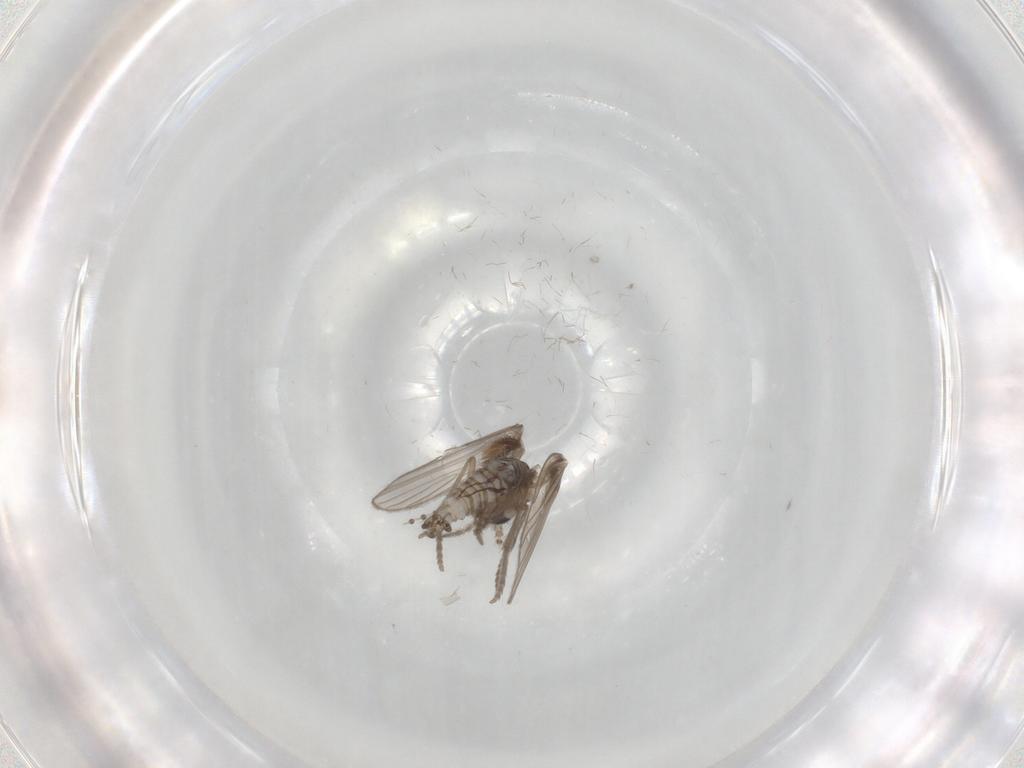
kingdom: Animalia
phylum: Arthropoda
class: Insecta
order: Diptera
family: Psychodidae
